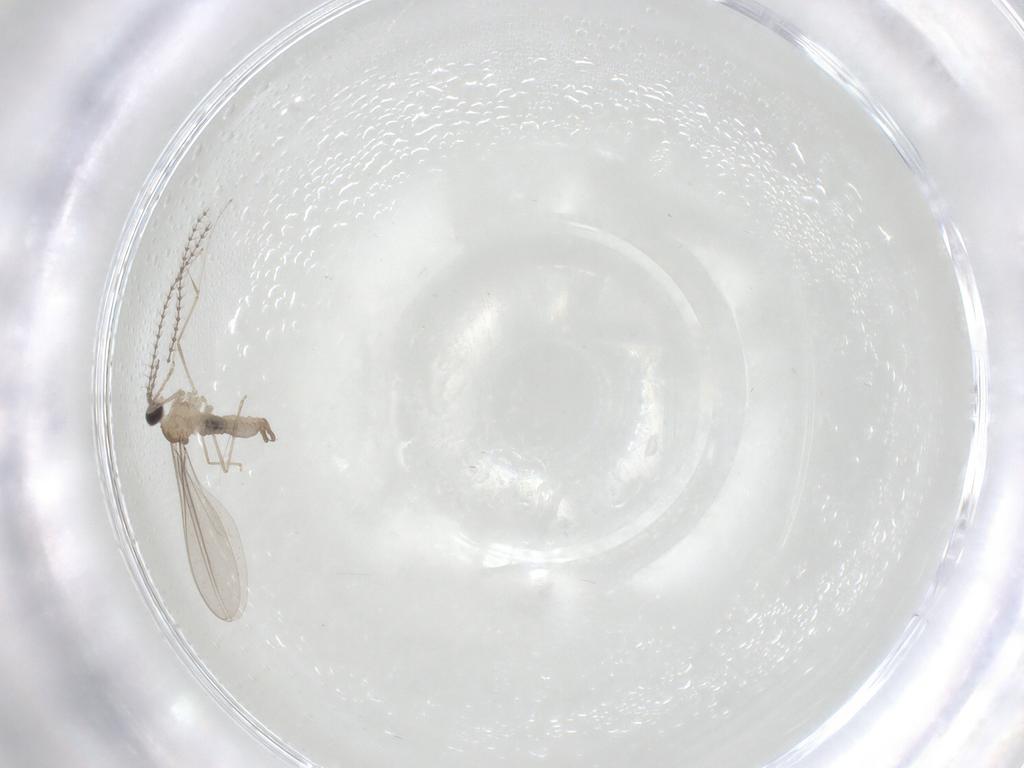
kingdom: Animalia
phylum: Arthropoda
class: Insecta
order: Diptera
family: Cecidomyiidae
